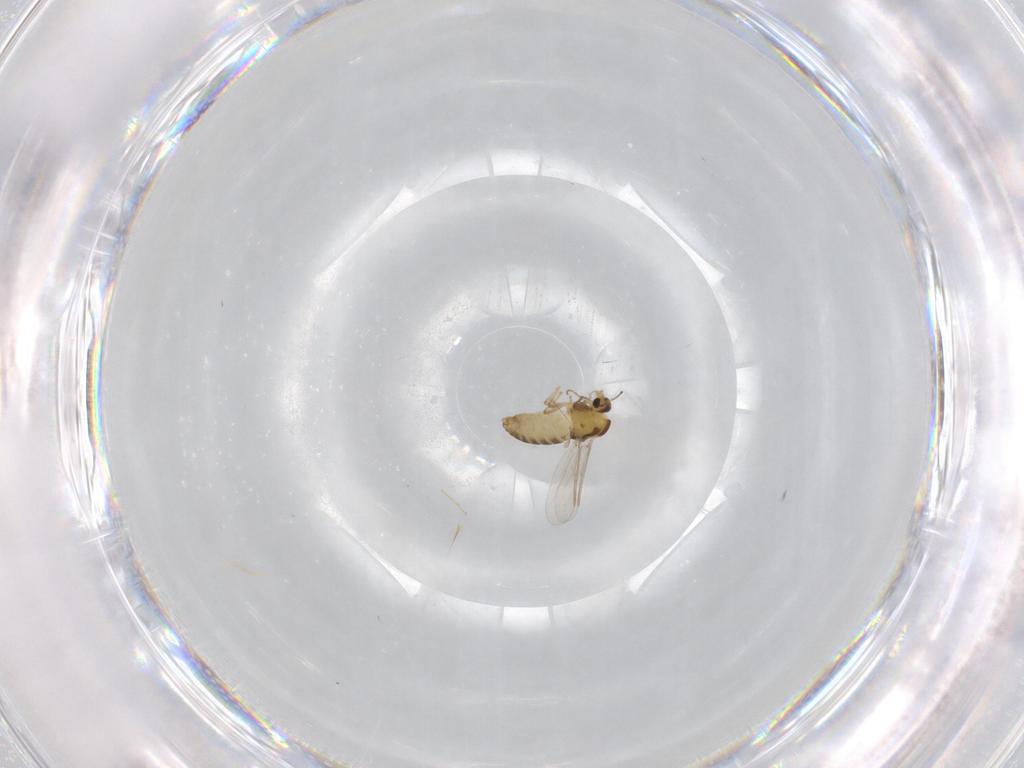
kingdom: Animalia
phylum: Arthropoda
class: Insecta
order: Diptera
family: Chironomidae
